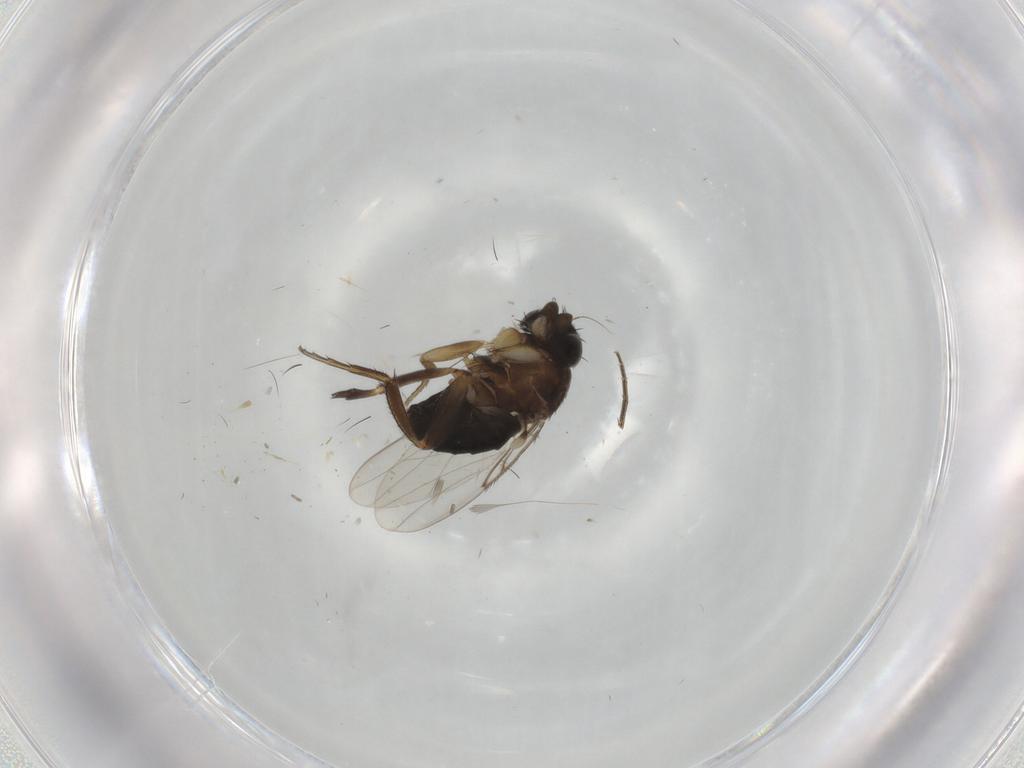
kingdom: Animalia
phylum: Arthropoda
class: Insecta
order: Diptera
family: Phoridae
